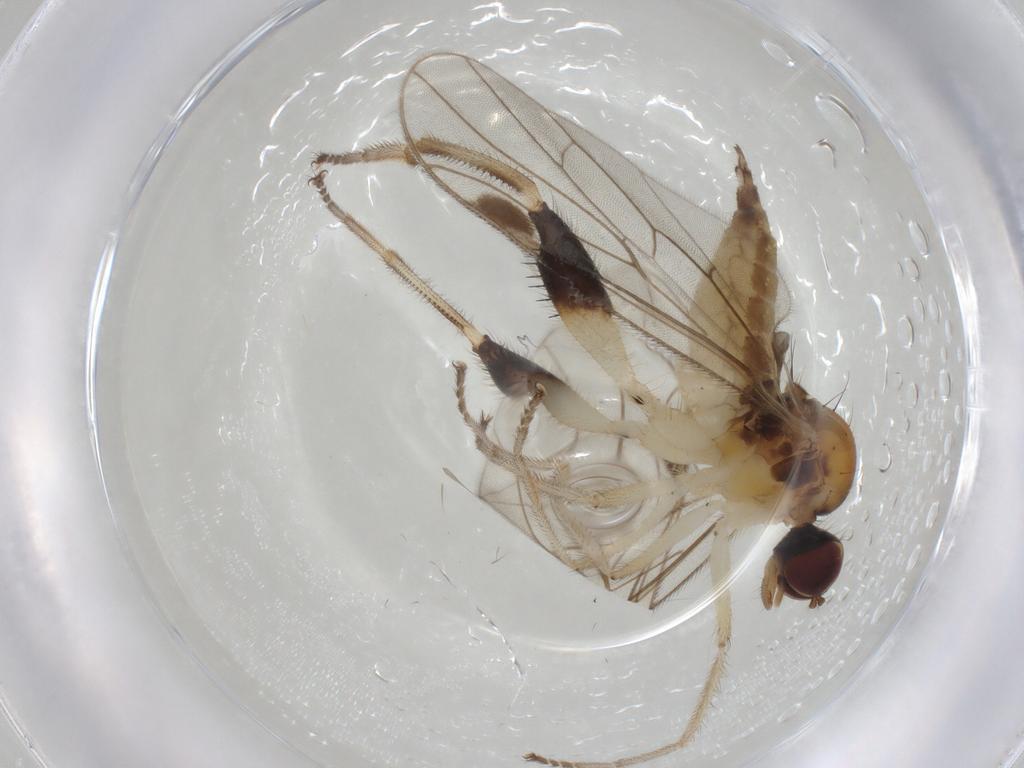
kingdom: Animalia
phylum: Arthropoda
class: Insecta
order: Diptera
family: Hybotidae
